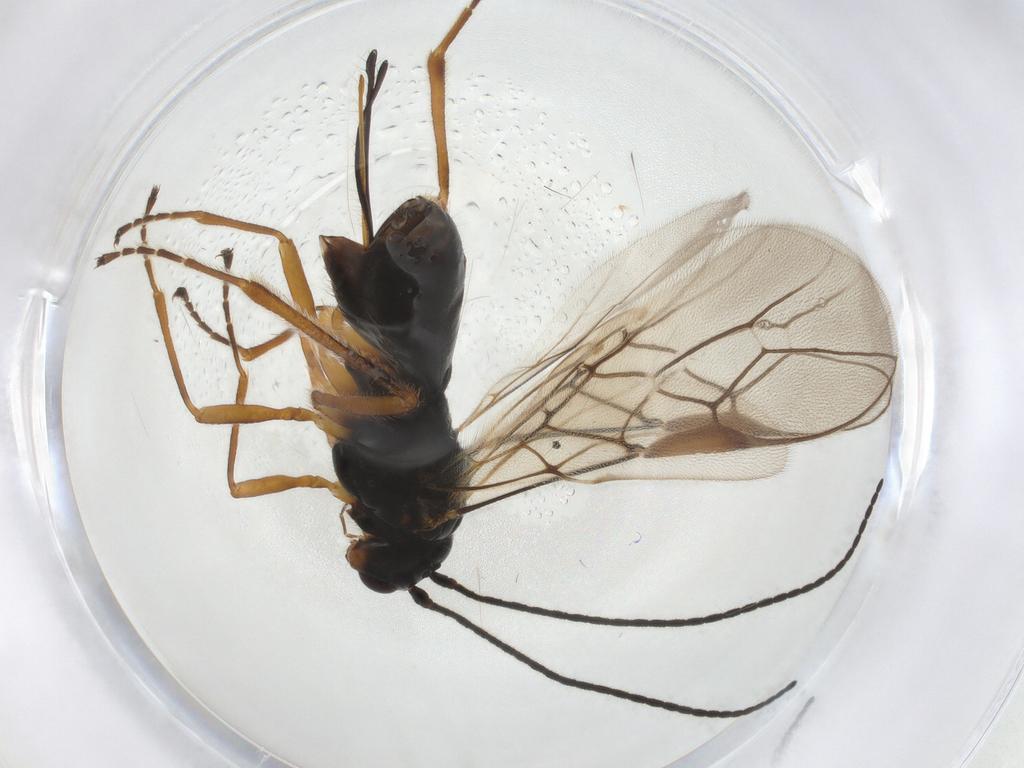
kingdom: Animalia
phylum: Arthropoda
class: Insecta
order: Hymenoptera
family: Braconidae
